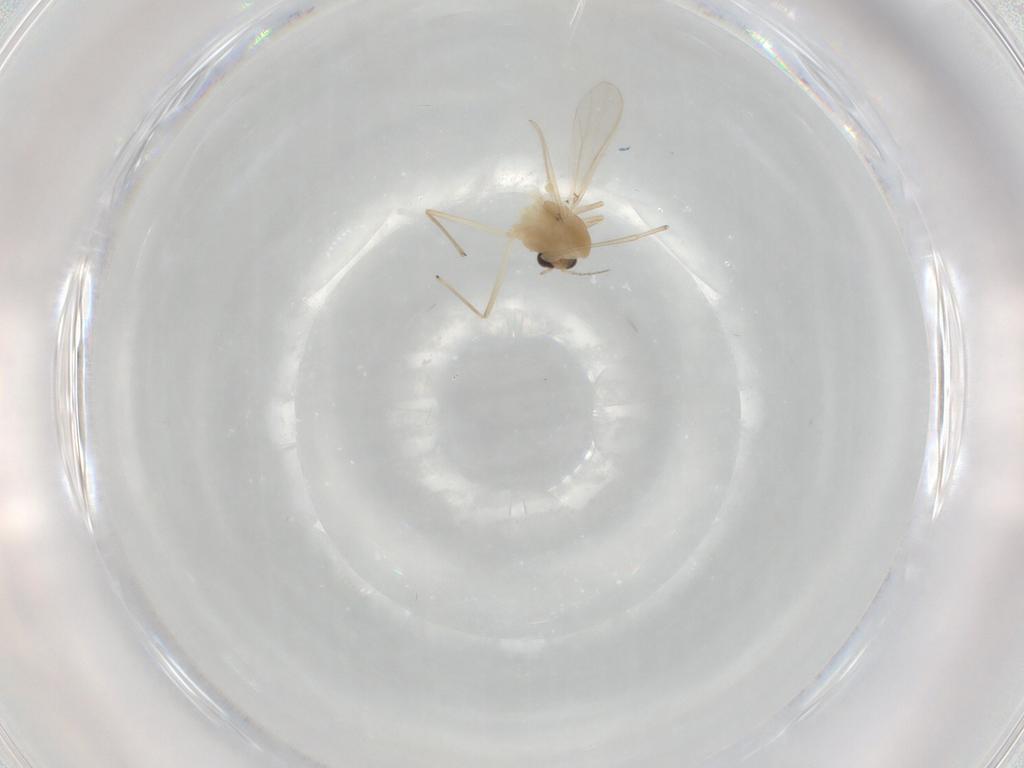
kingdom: Animalia
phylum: Arthropoda
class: Insecta
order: Diptera
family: Chironomidae
